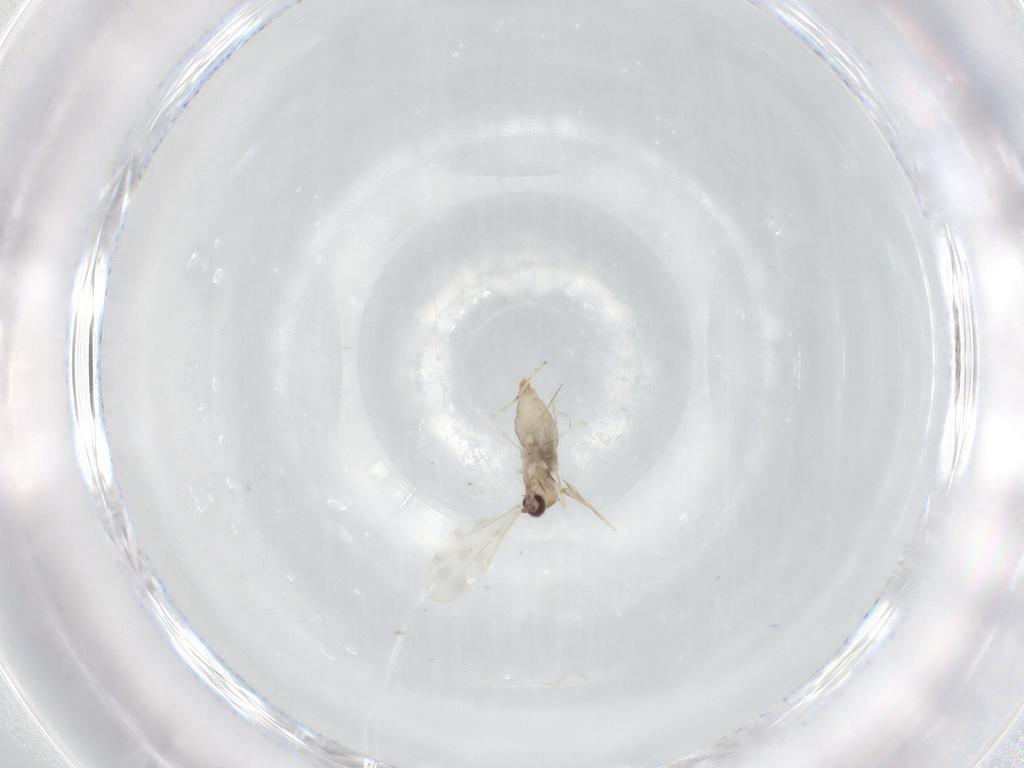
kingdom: Animalia
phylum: Arthropoda
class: Insecta
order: Diptera
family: Cecidomyiidae
